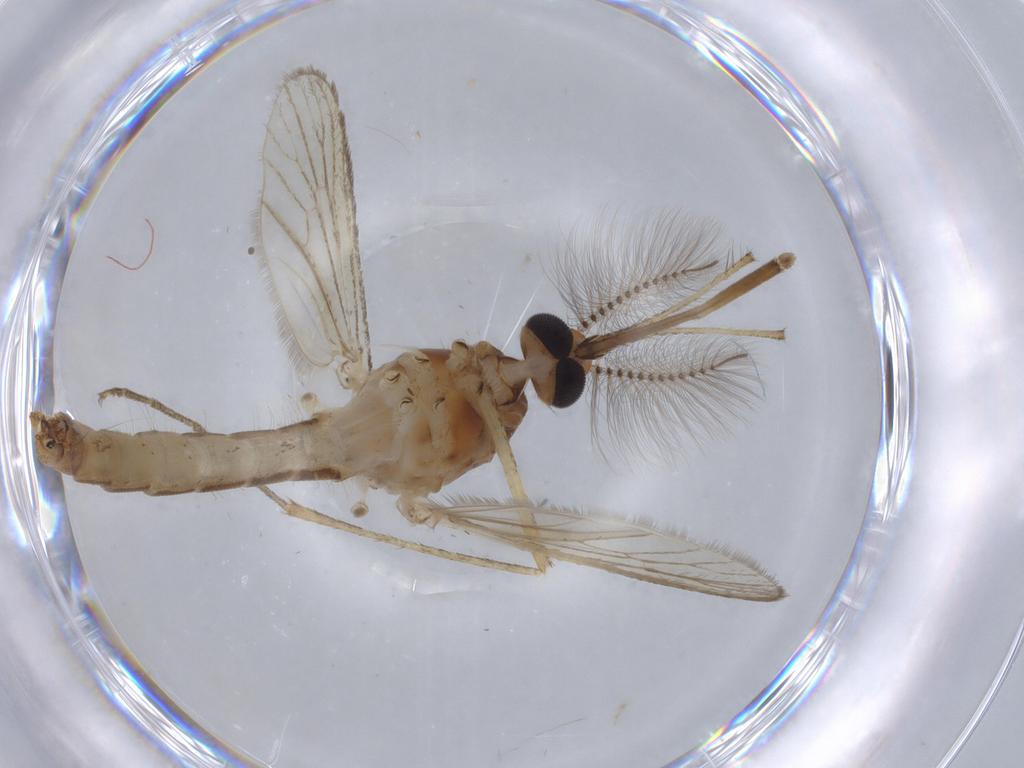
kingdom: Animalia
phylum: Arthropoda
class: Insecta
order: Diptera
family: Culicidae
